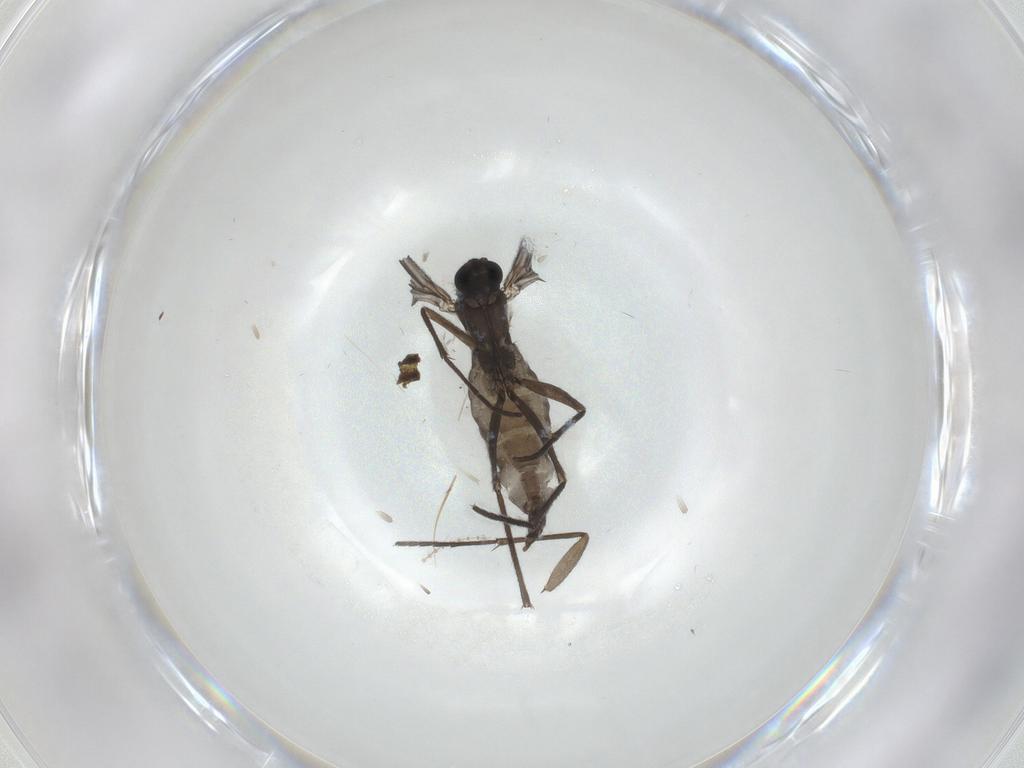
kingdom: Animalia
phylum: Arthropoda
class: Insecta
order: Diptera
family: Sciaridae
